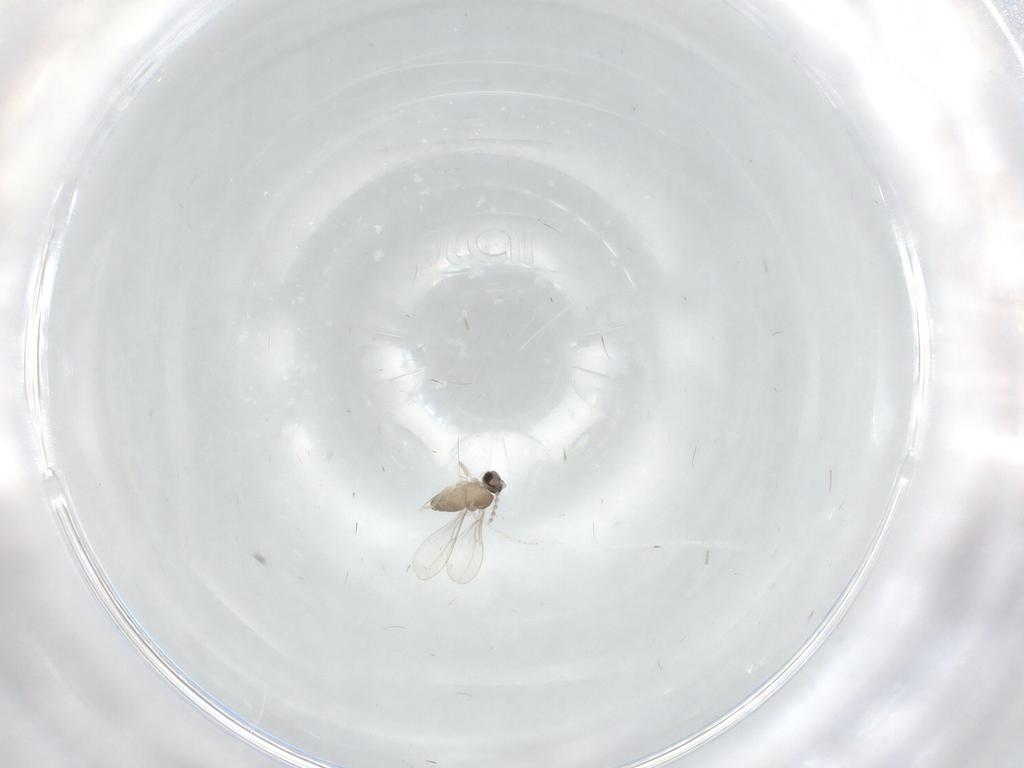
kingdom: Animalia
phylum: Arthropoda
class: Insecta
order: Diptera
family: Cecidomyiidae
